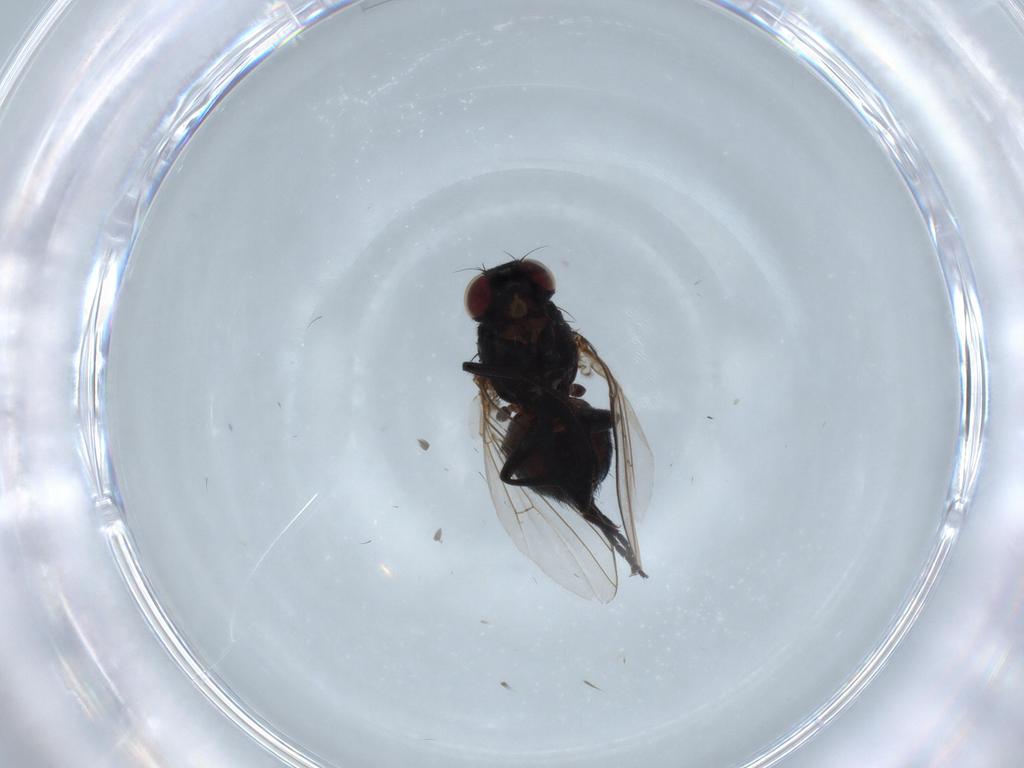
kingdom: Animalia
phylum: Arthropoda
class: Insecta
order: Diptera
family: Agromyzidae
